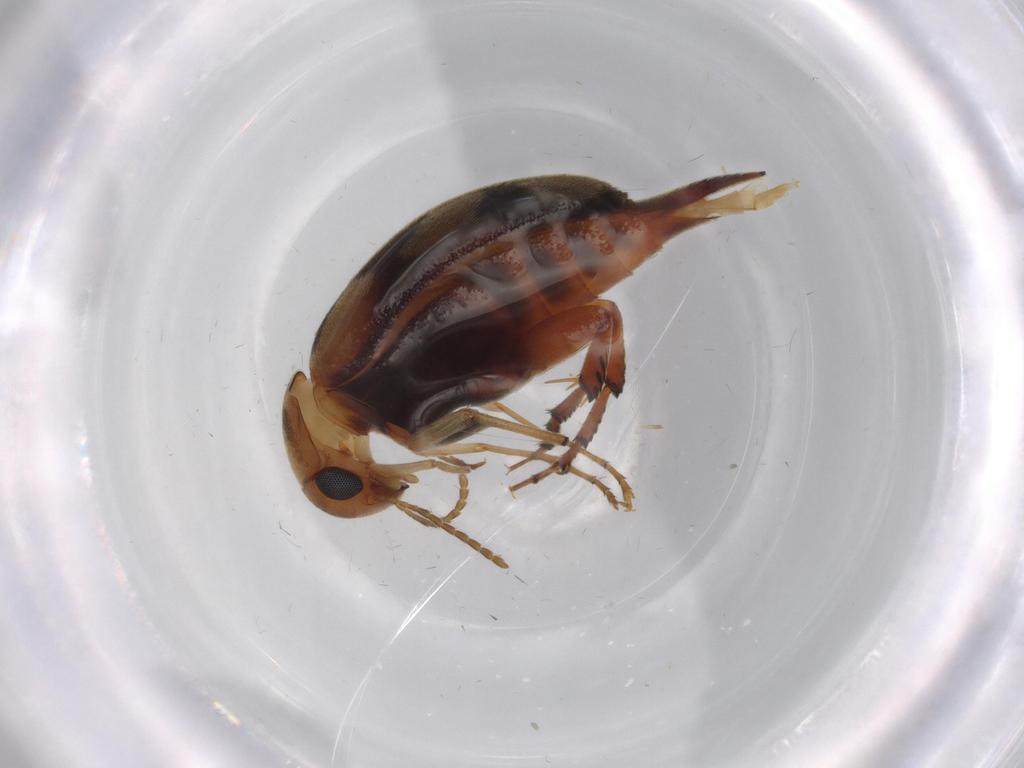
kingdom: Animalia
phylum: Arthropoda
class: Insecta
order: Coleoptera
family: Mordellidae
